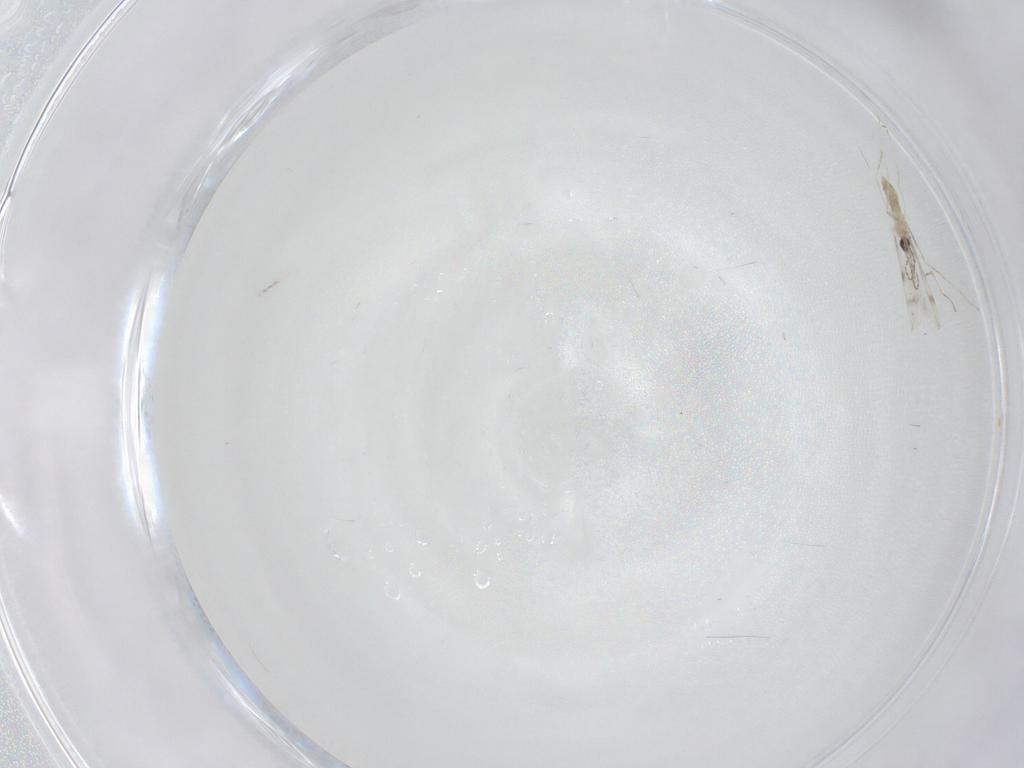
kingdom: Animalia
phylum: Arthropoda
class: Insecta
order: Diptera
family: Cecidomyiidae
